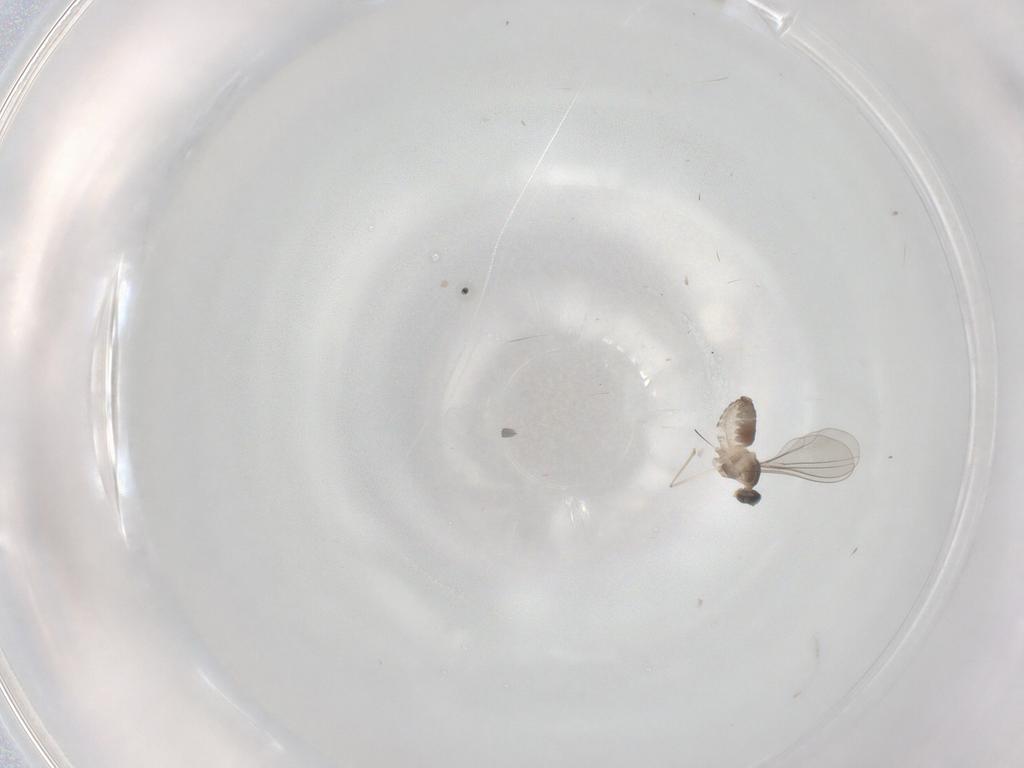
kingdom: Animalia
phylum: Arthropoda
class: Insecta
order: Diptera
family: Cecidomyiidae
